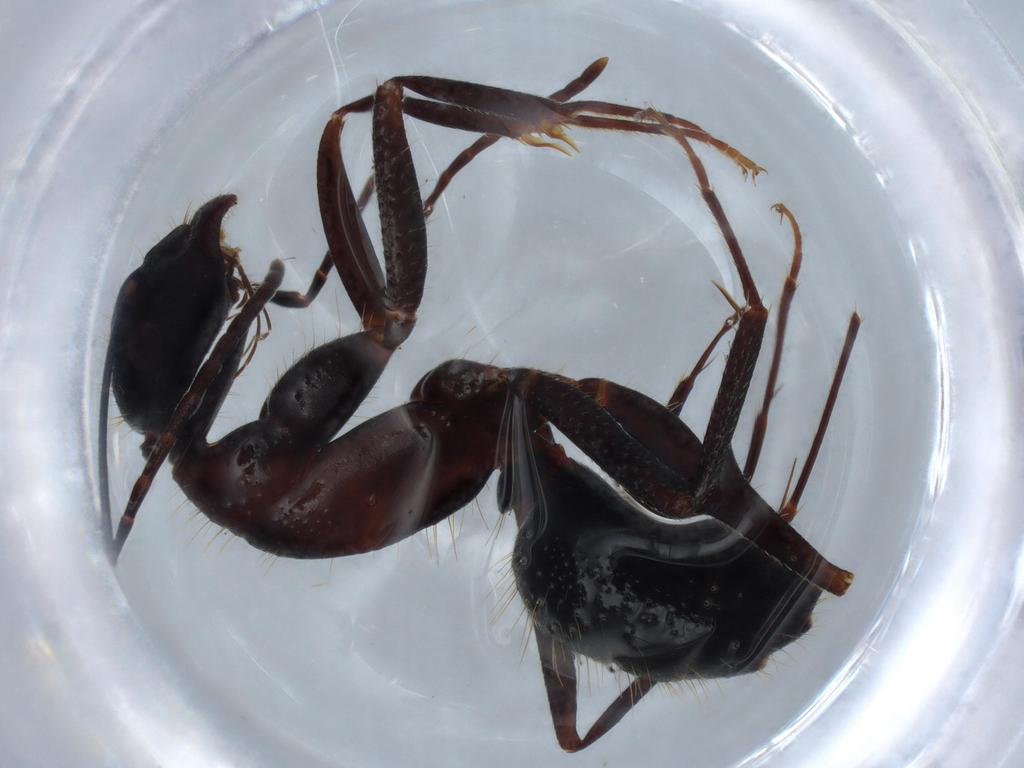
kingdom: Animalia
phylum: Arthropoda
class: Insecta
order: Hymenoptera
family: Formicidae
